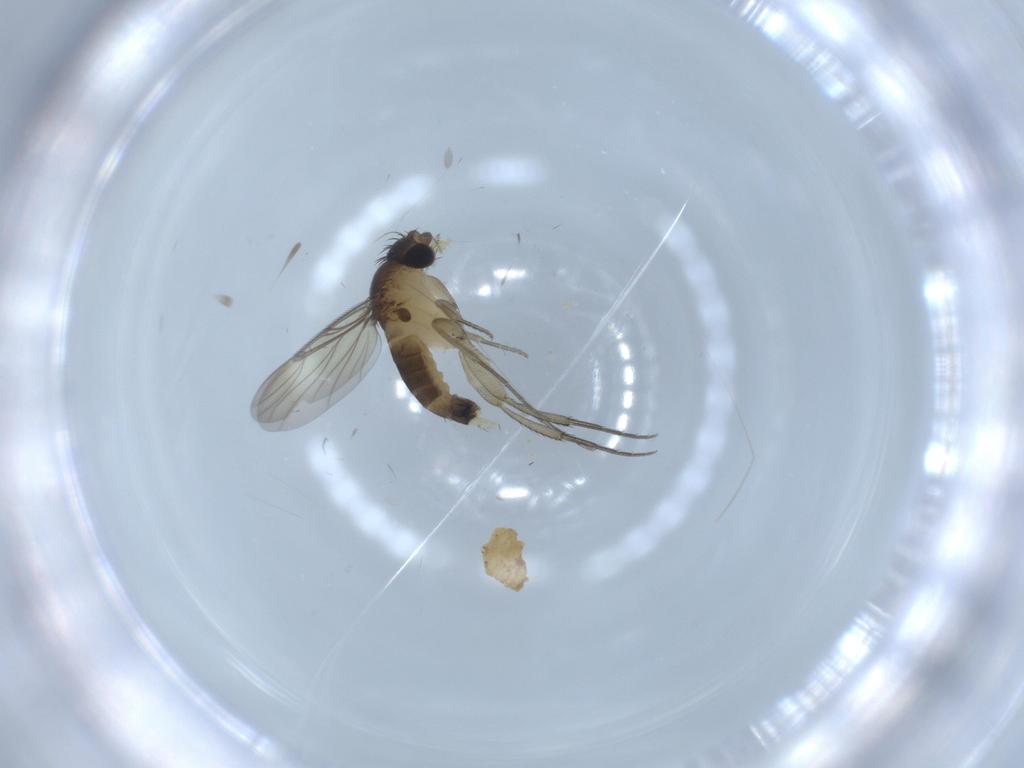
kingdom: Animalia
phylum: Arthropoda
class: Insecta
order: Diptera
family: Phoridae
